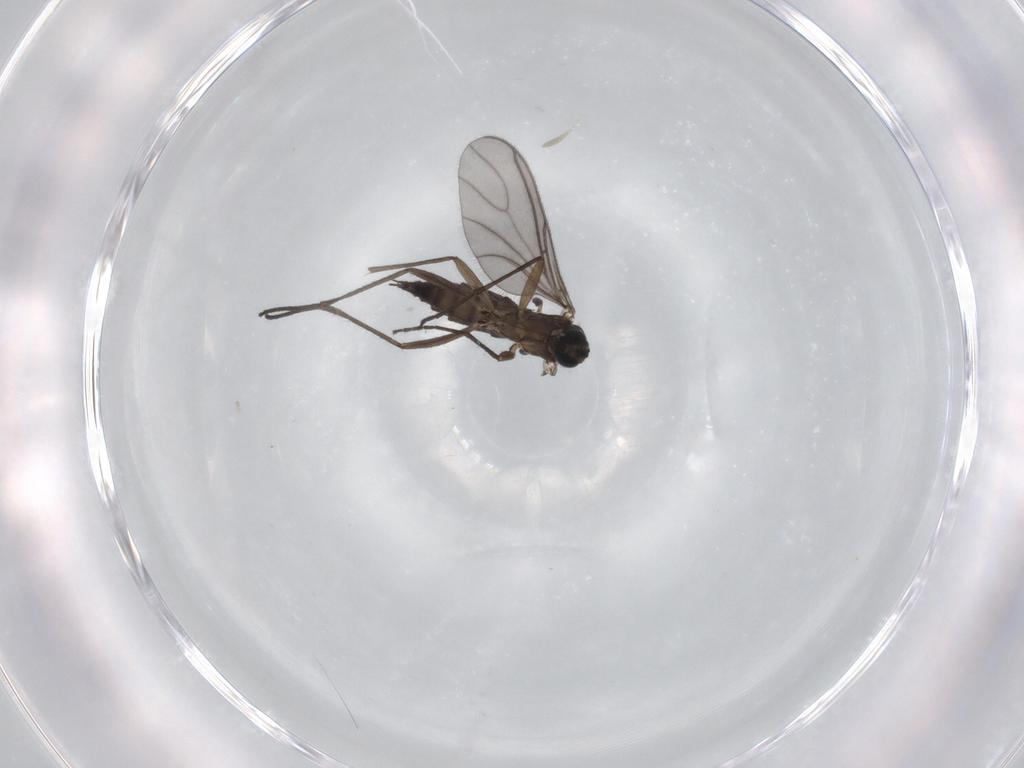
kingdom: Animalia
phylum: Arthropoda
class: Insecta
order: Diptera
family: Sciaridae
